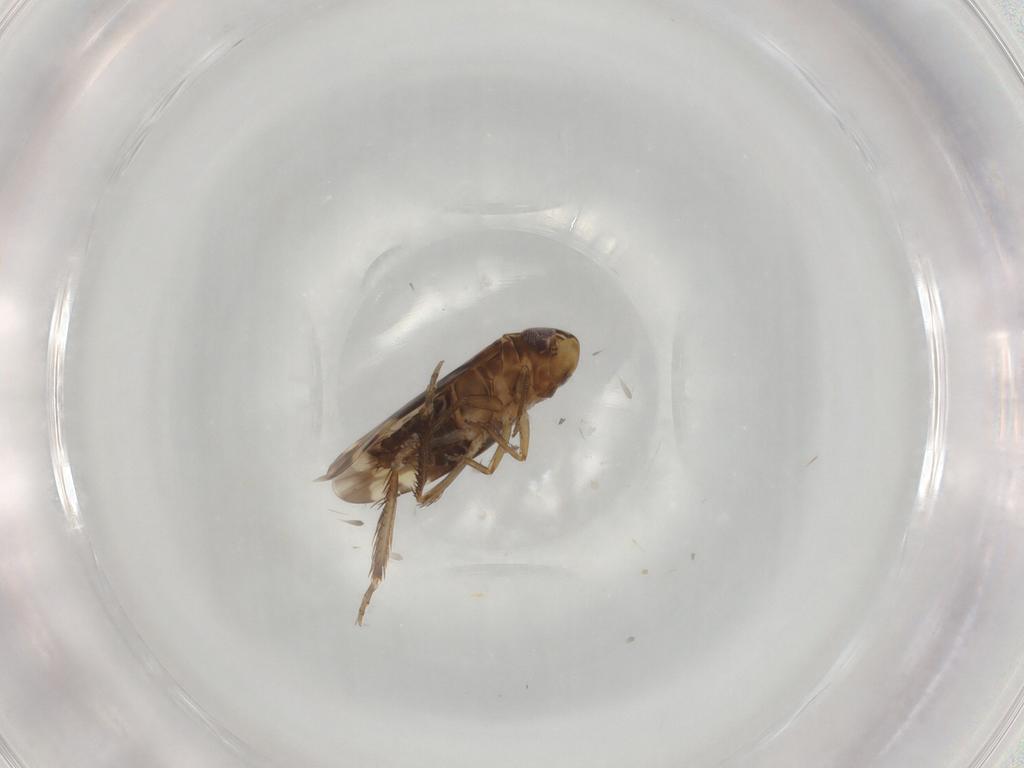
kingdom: Animalia
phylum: Arthropoda
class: Insecta
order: Hemiptera
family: Cicadellidae
